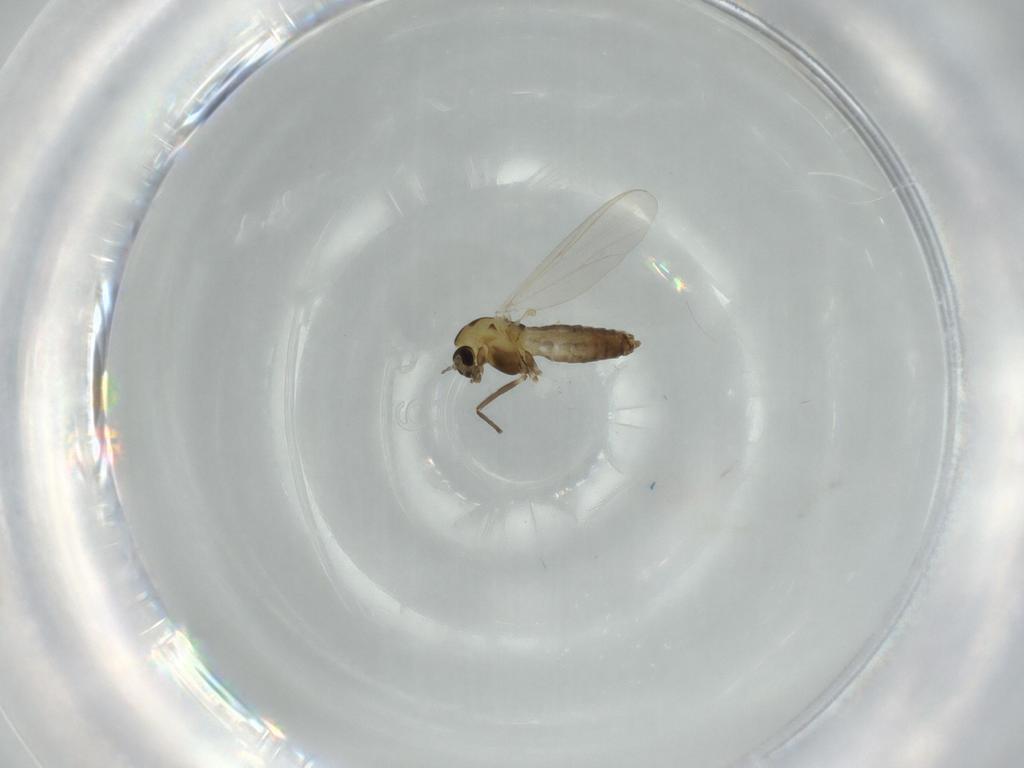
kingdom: Animalia
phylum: Arthropoda
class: Insecta
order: Diptera
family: Chironomidae
